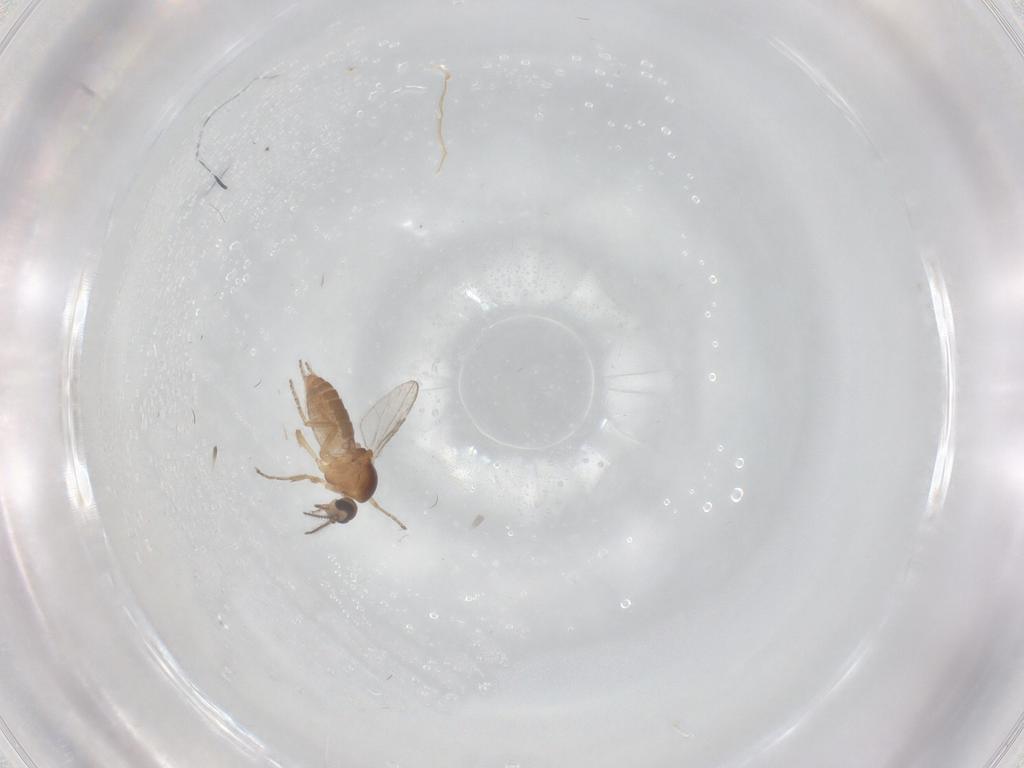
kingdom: Animalia
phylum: Arthropoda
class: Insecta
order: Diptera
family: Ceratopogonidae
